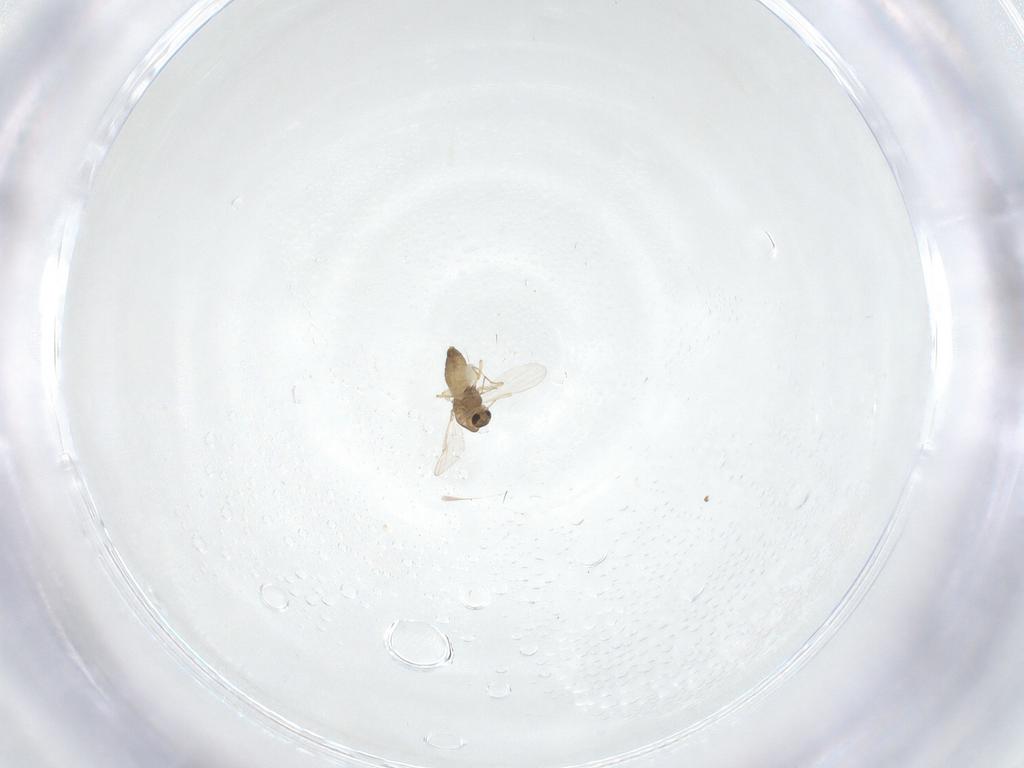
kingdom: Animalia
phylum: Arthropoda
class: Insecta
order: Diptera
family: Chironomidae
